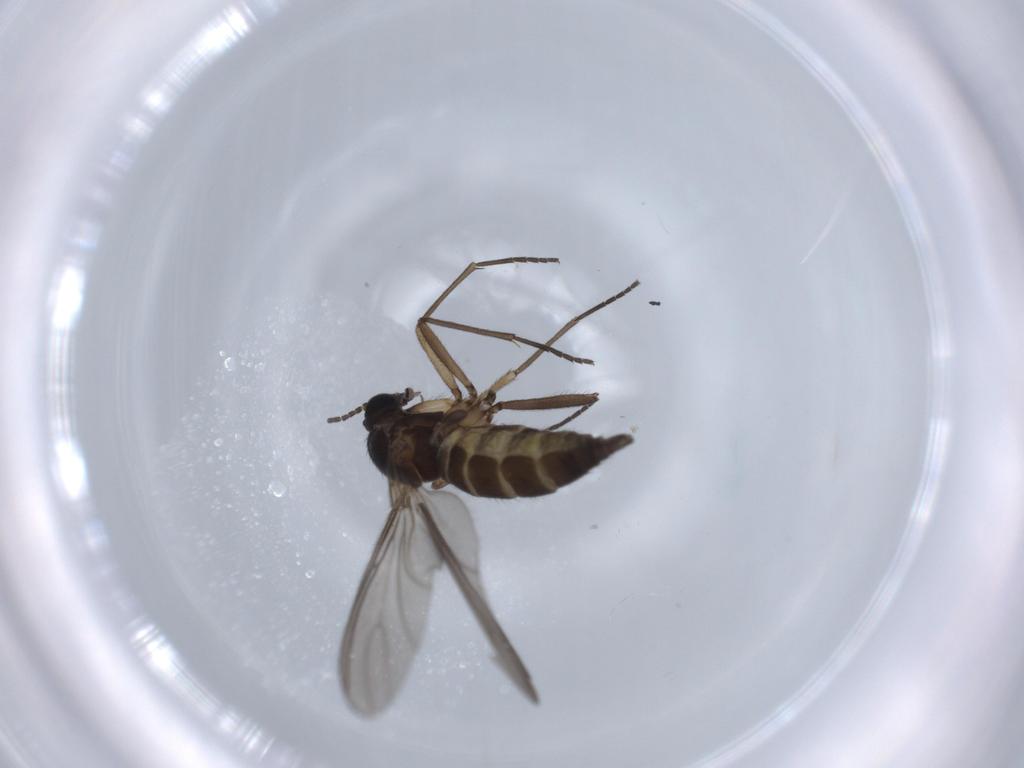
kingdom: Animalia
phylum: Arthropoda
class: Insecta
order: Diptera
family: Sciaridae
